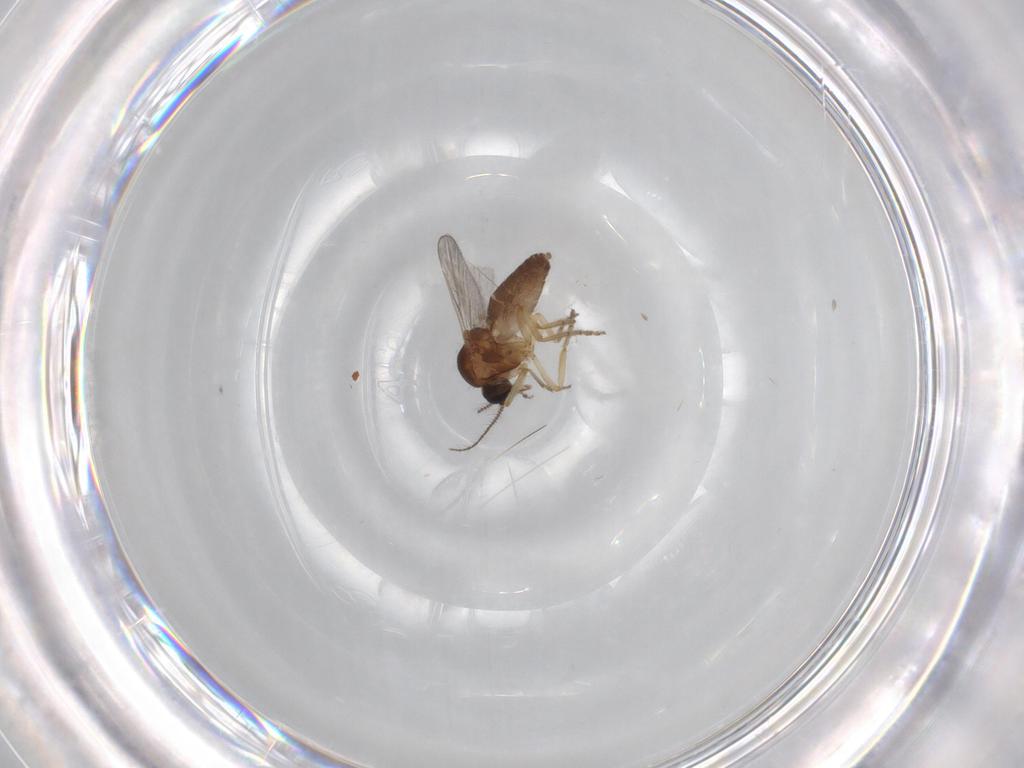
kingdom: Animalia
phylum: Arthropoda
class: Insecta
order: Diptera
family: Ceratopogonidae
